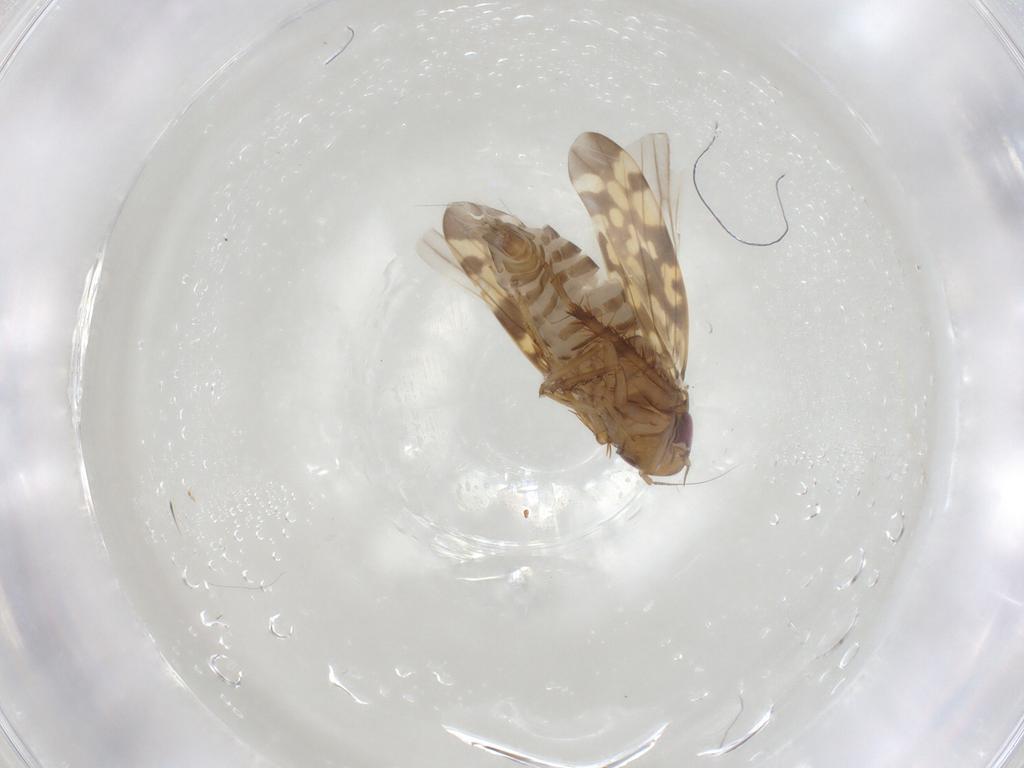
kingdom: Animalia
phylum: Arthropoda
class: Insecta
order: Hemiptera
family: Cicadellidae
